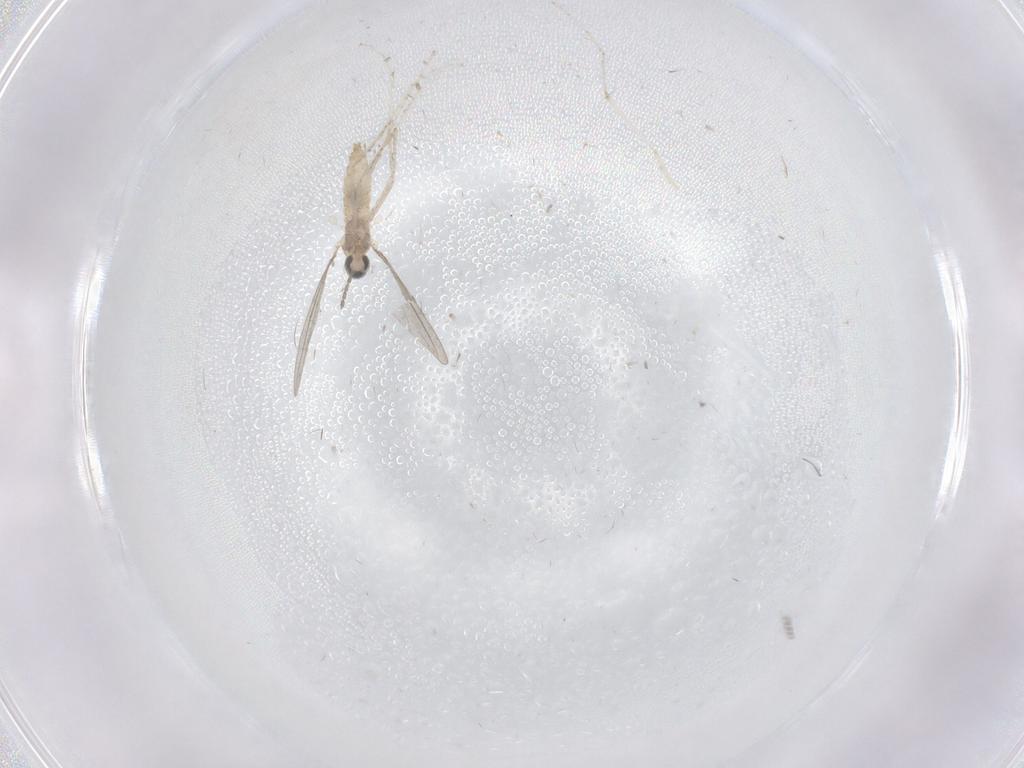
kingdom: Animalia
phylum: Arthropoda
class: Insecta
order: Diptera
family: Cecidomyiidae
